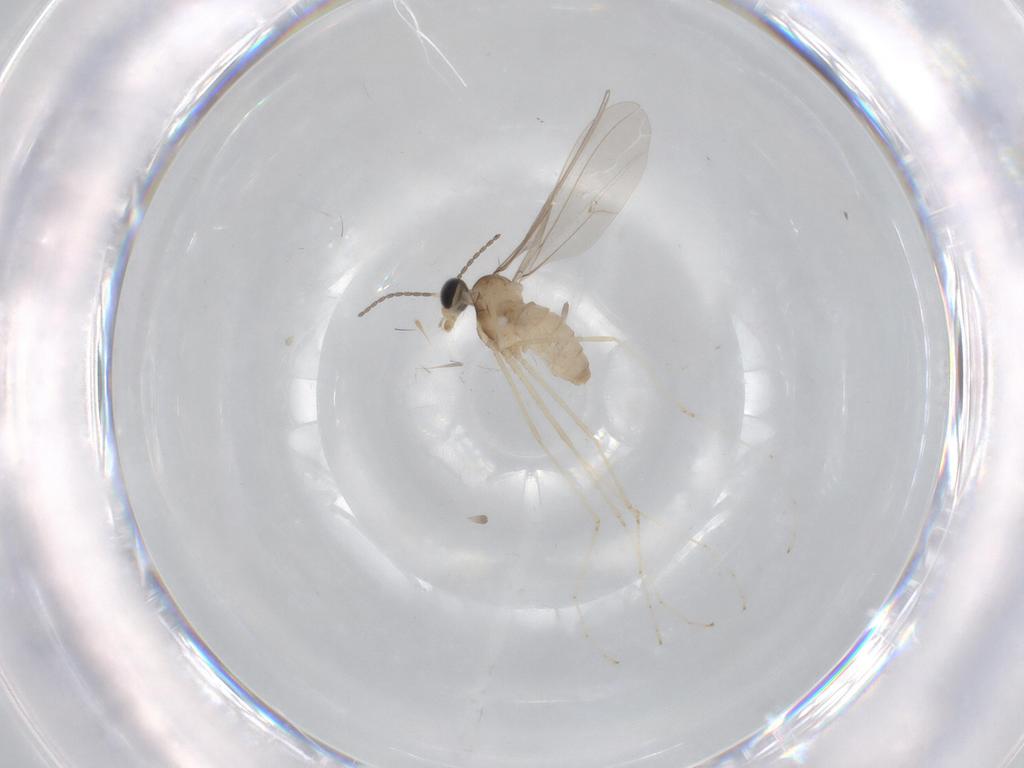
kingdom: Animalia
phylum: Arthropoda
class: Insecta
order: Diptera
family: Cecidomyiidae
